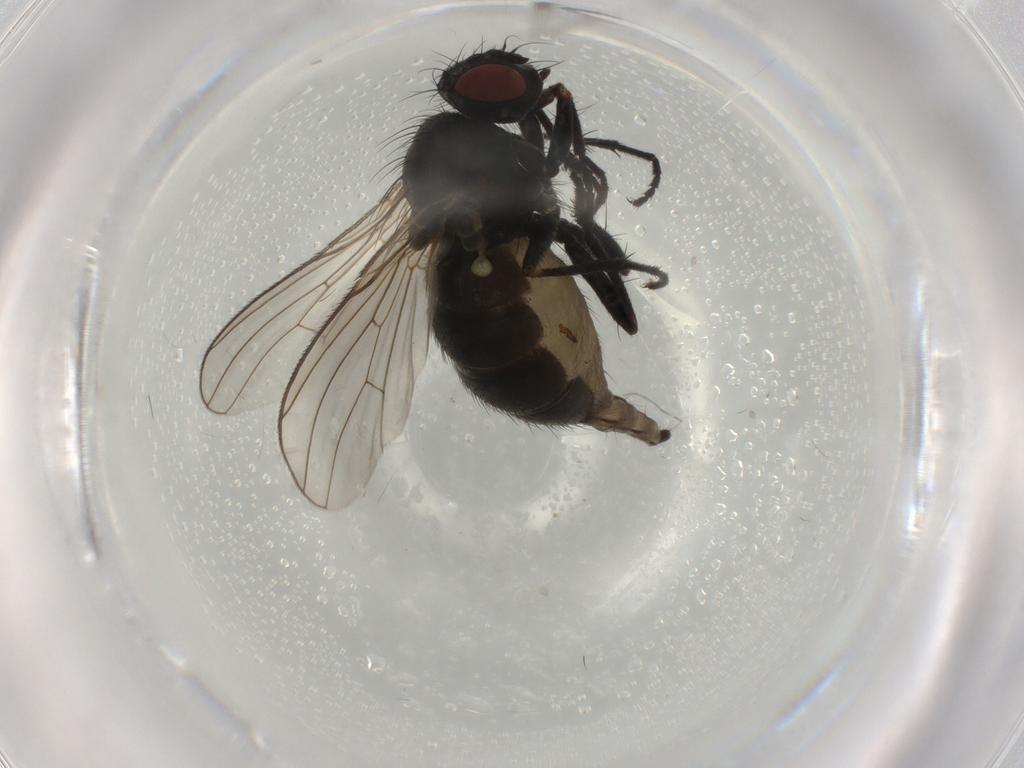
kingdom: Animalia
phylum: Arthropoda
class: Insecta
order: Diptera
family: Muscidae
